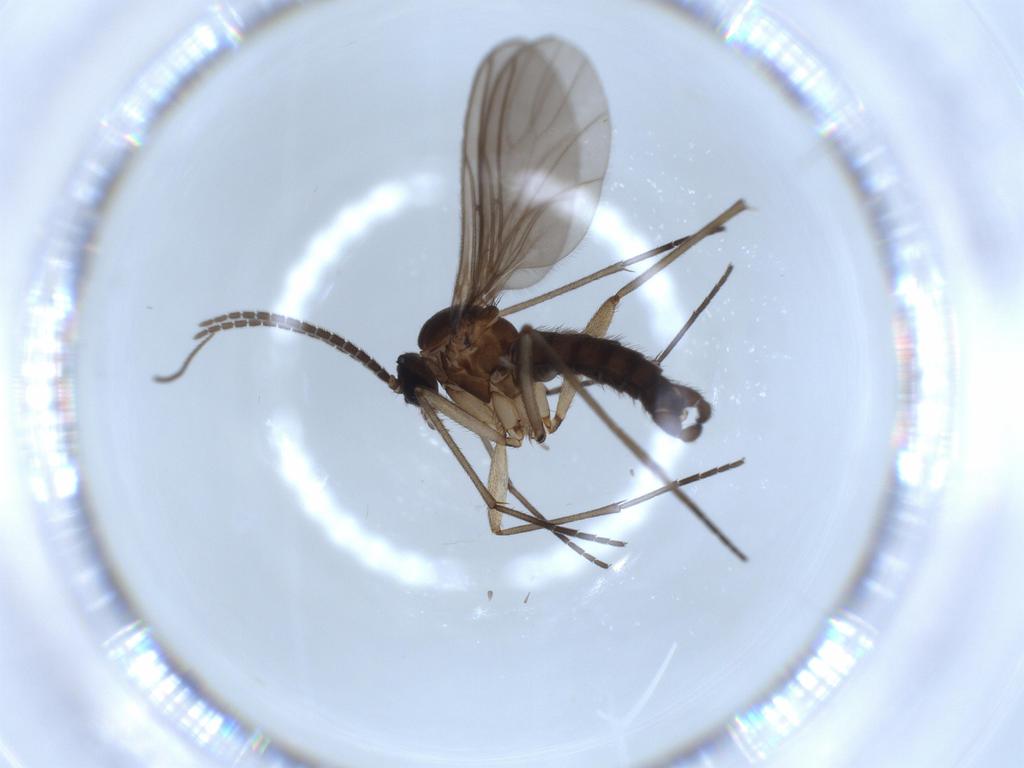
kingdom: Animalia
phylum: Arthropoda
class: Insecta
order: Diptera
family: Sciaridae
